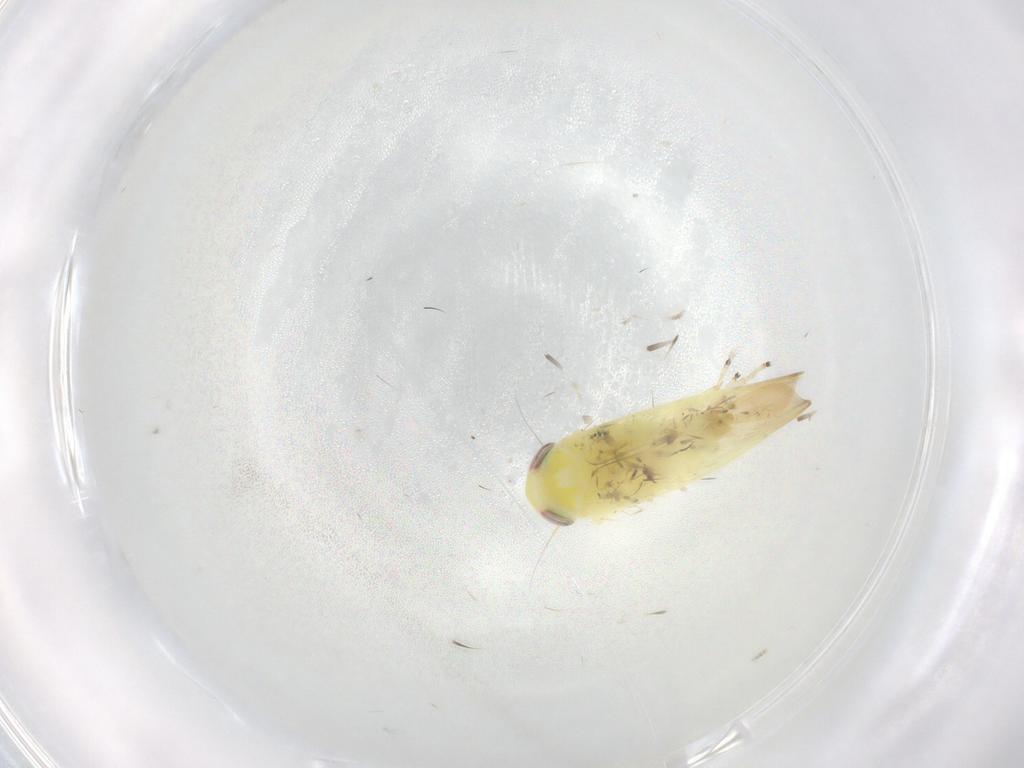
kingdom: Animalia
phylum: Arthropoda
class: Insecta
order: Hemiptera
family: Cicadellidae
